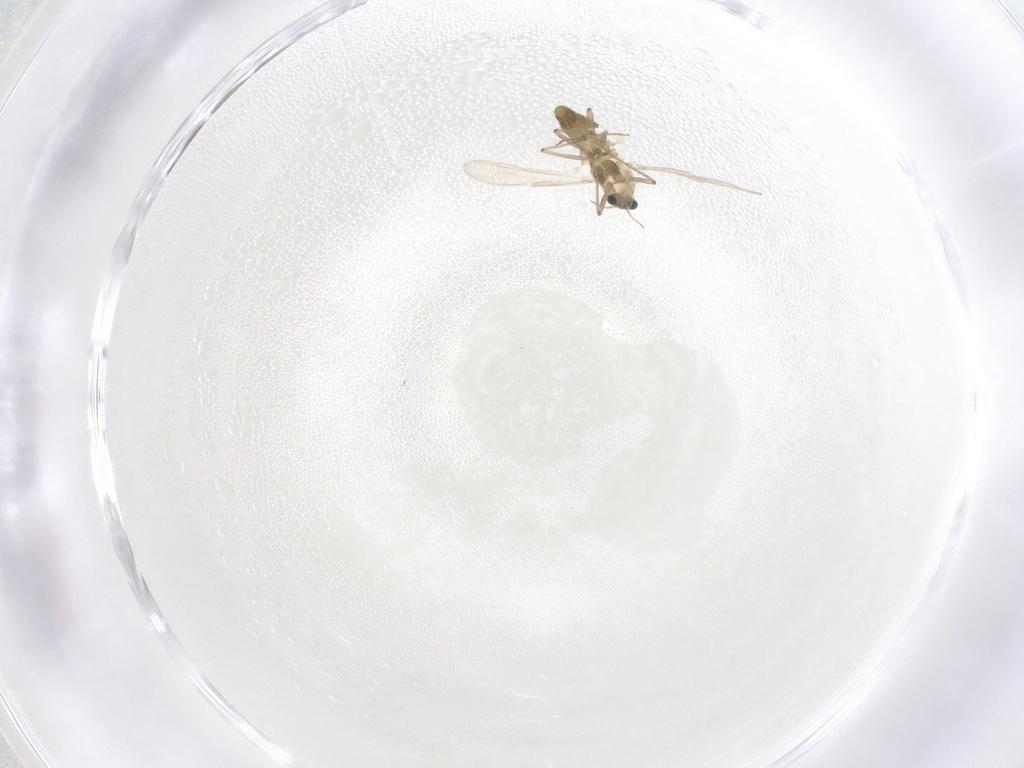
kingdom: Animalia
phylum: Arthropoda
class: Insecta
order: Diptera
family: Chironomidae
